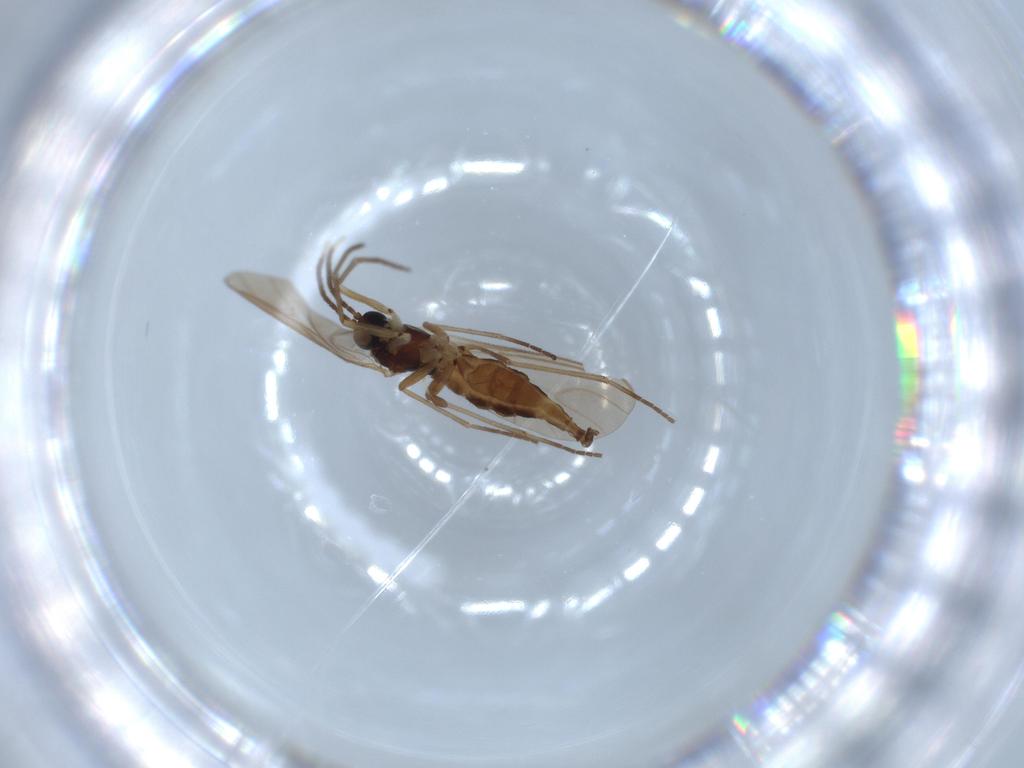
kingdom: Animalia
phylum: Arthropoda
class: Insecta
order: Diptera
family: Sciaridae
